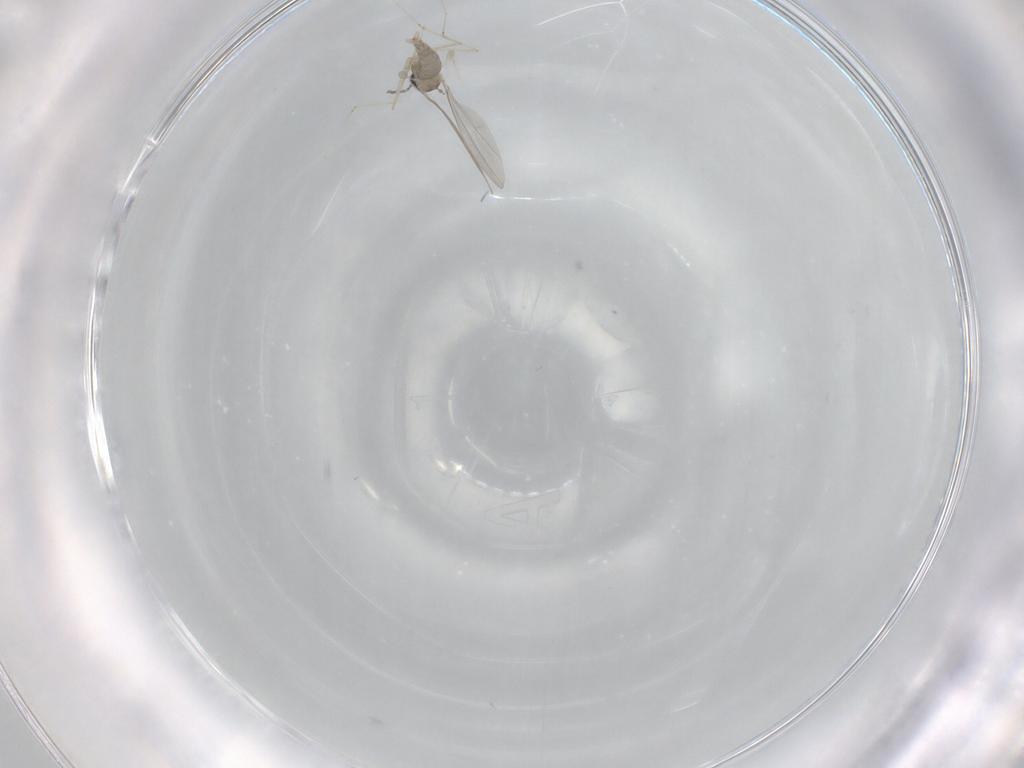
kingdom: Animalia
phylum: Arthropoda
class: Insecta
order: Diptera
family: Cecidomyiidae
